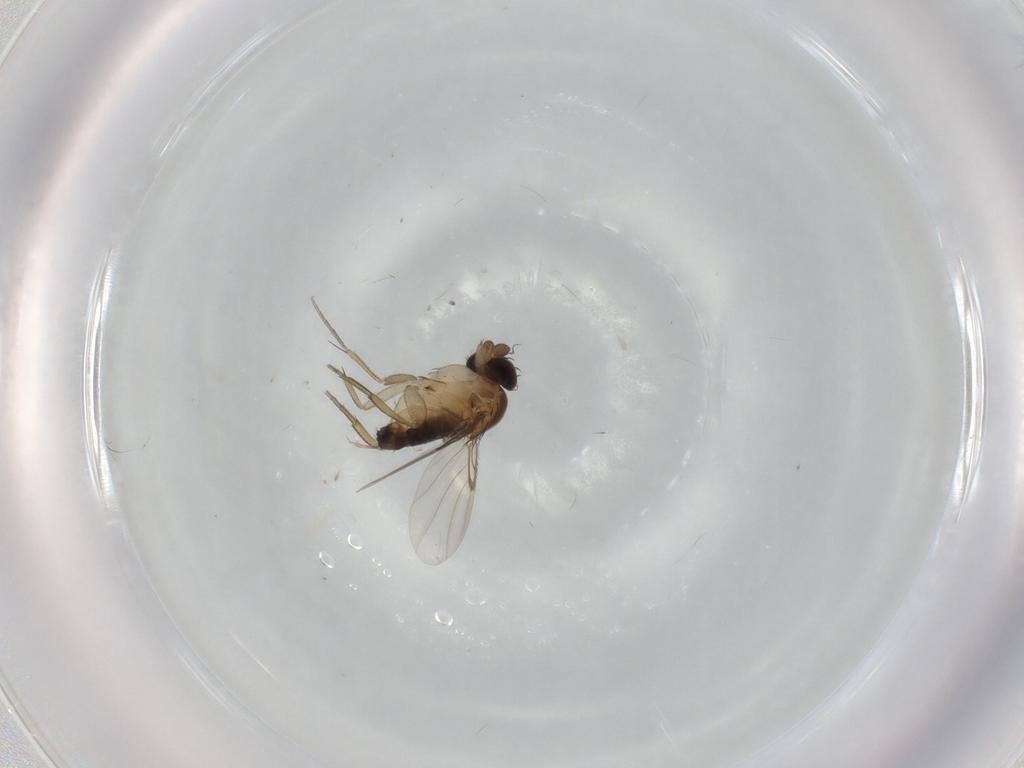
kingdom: Animalia
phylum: Arthropoda
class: Insecta
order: Diptera
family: Phoridae
